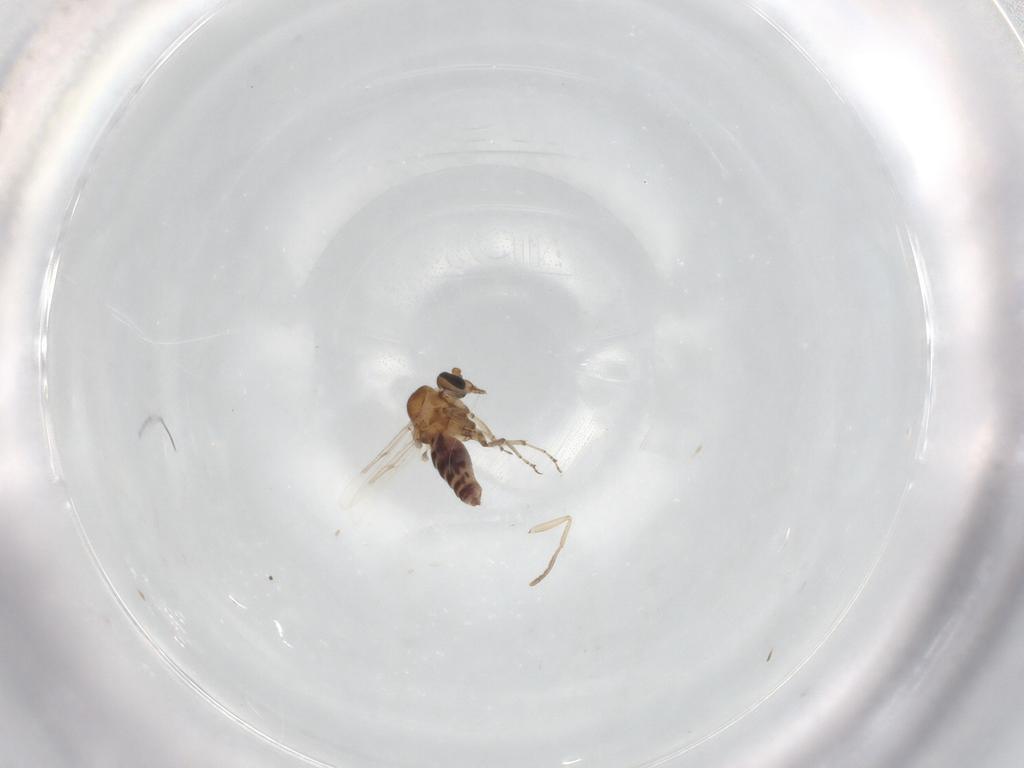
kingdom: Animalia
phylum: Arthropoda
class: Insecta
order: Diptera
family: Ceratopogonidae
